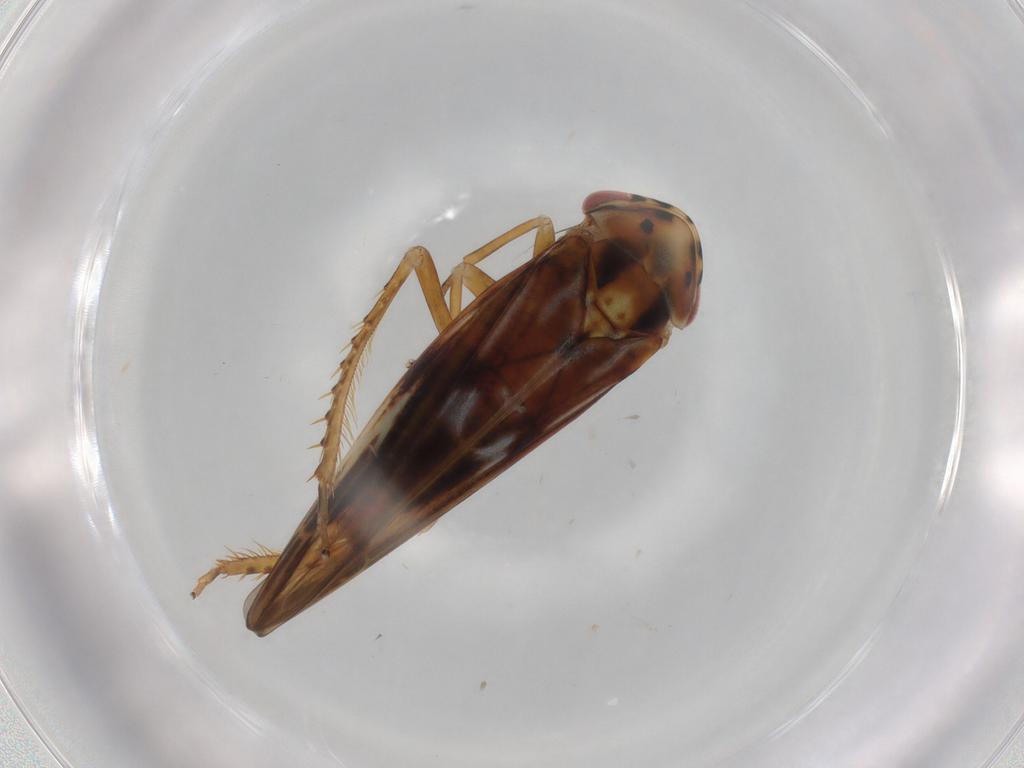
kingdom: Animalia
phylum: Arthropoda
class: Insecta
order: Hemiptera
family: Cicadellidae
